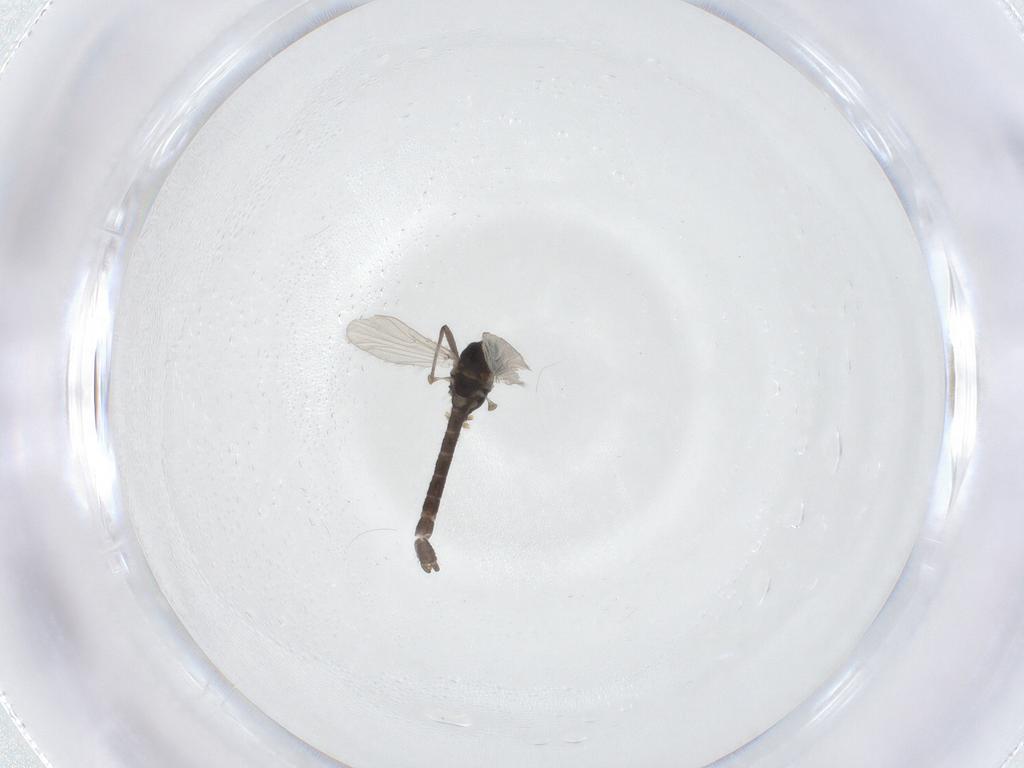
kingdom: Animalia
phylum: Arthropoda
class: Insecta
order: Diptera
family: Chironomidae
